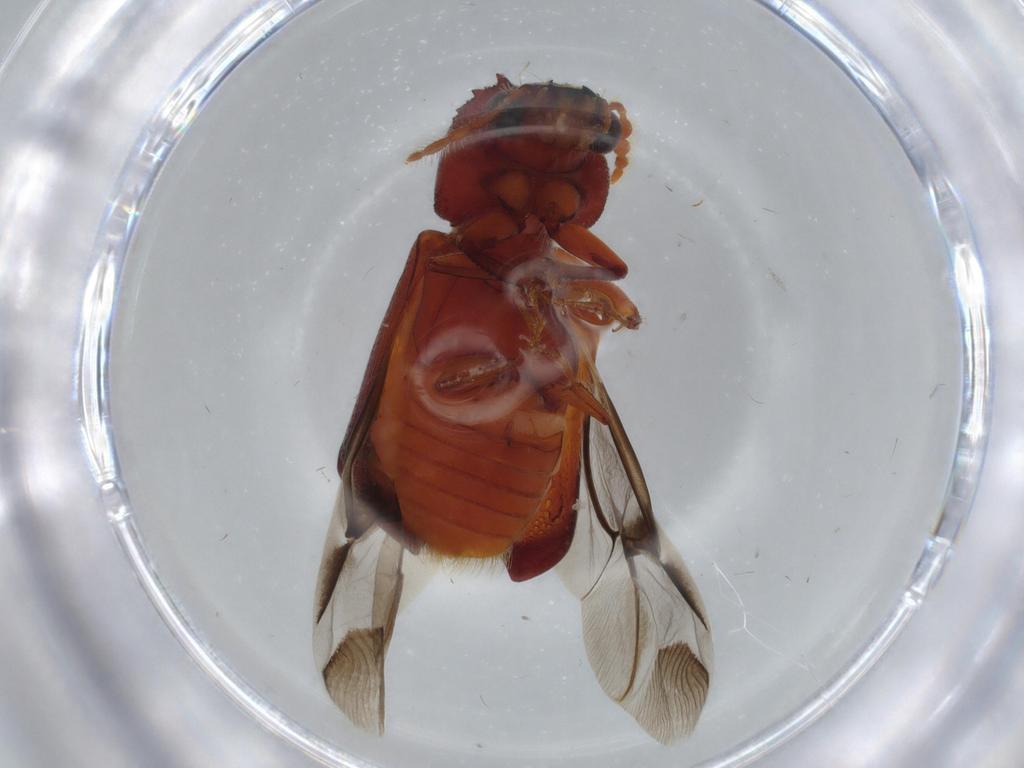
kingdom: Animalia
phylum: Arthropoda
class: Insecta
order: Coleoptera
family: Bostrichidae
